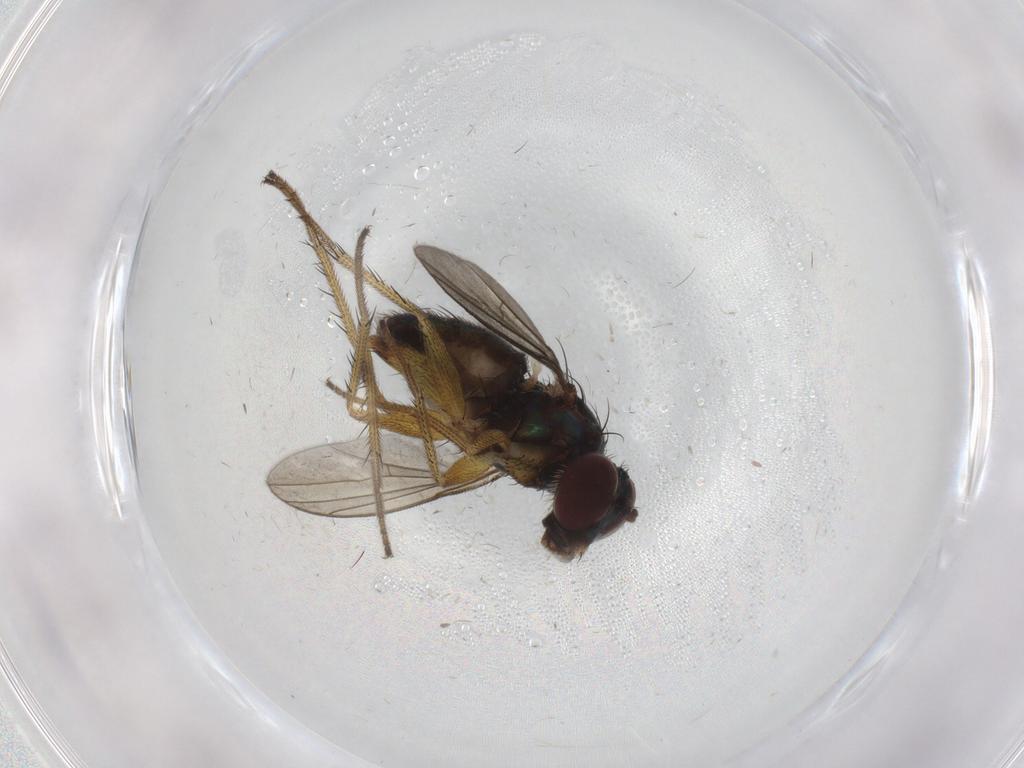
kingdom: Animalia
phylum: Arthropoda
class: Insecta
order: Diptera
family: Dolichopodidae
